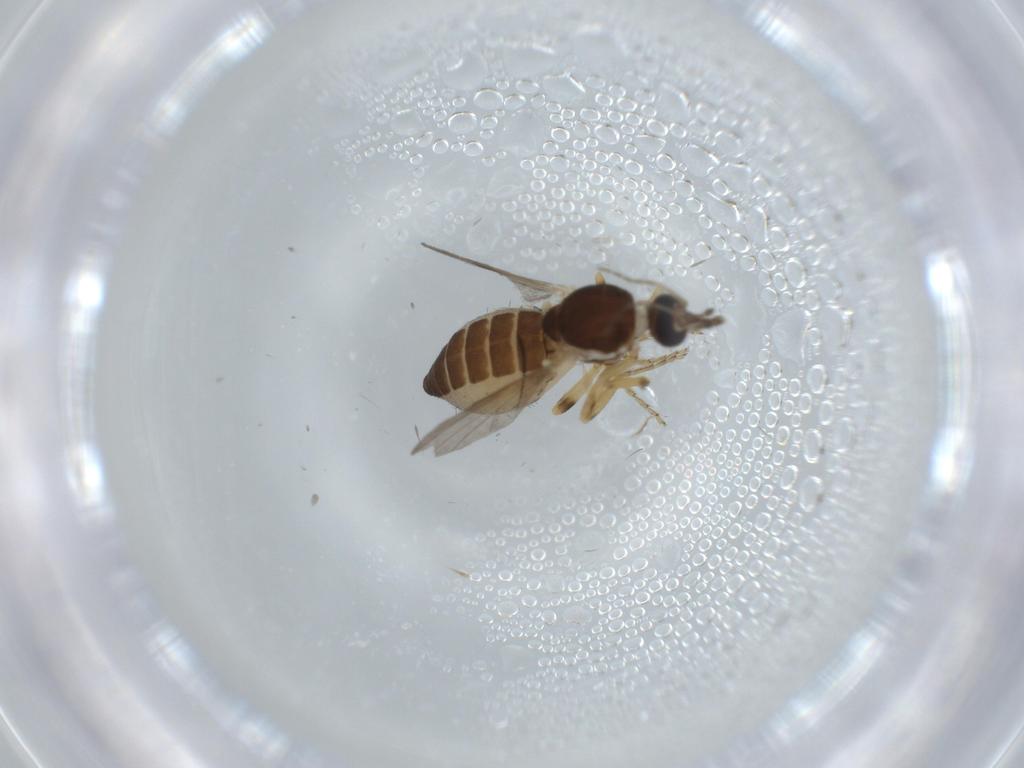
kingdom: Animalia
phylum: Arthropoda
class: Insecta
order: Diptera
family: Ceratopogonidae
